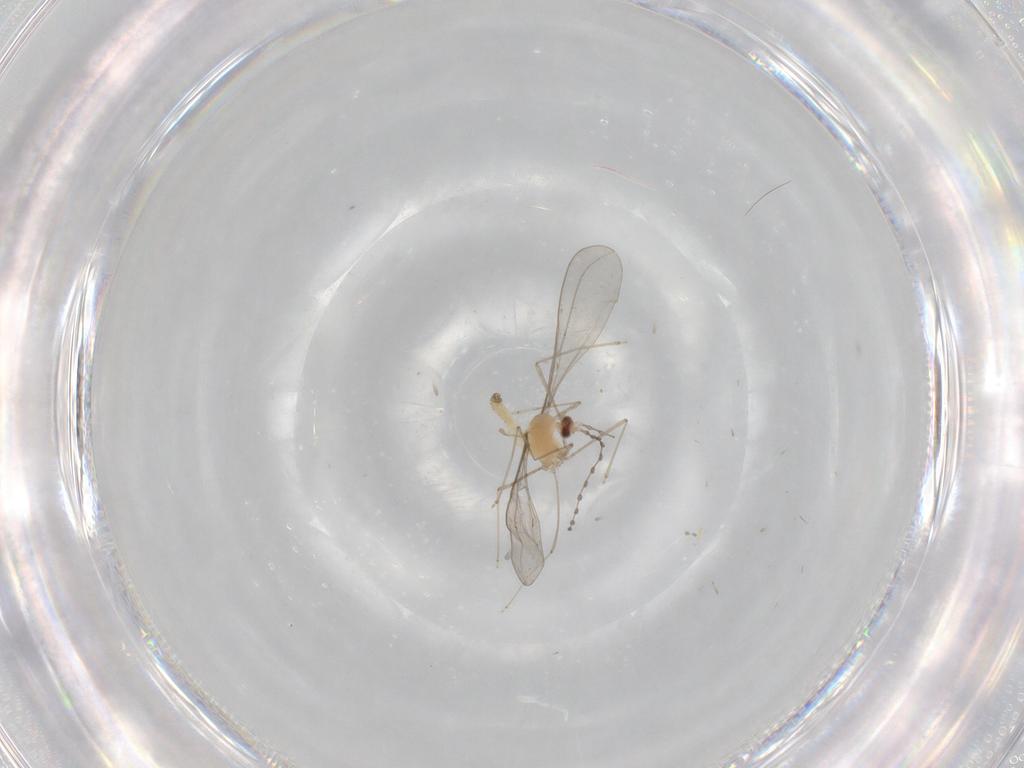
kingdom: Animalia
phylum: Arthropoda
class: Insecta
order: Diptera
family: Cecidomyiidae
